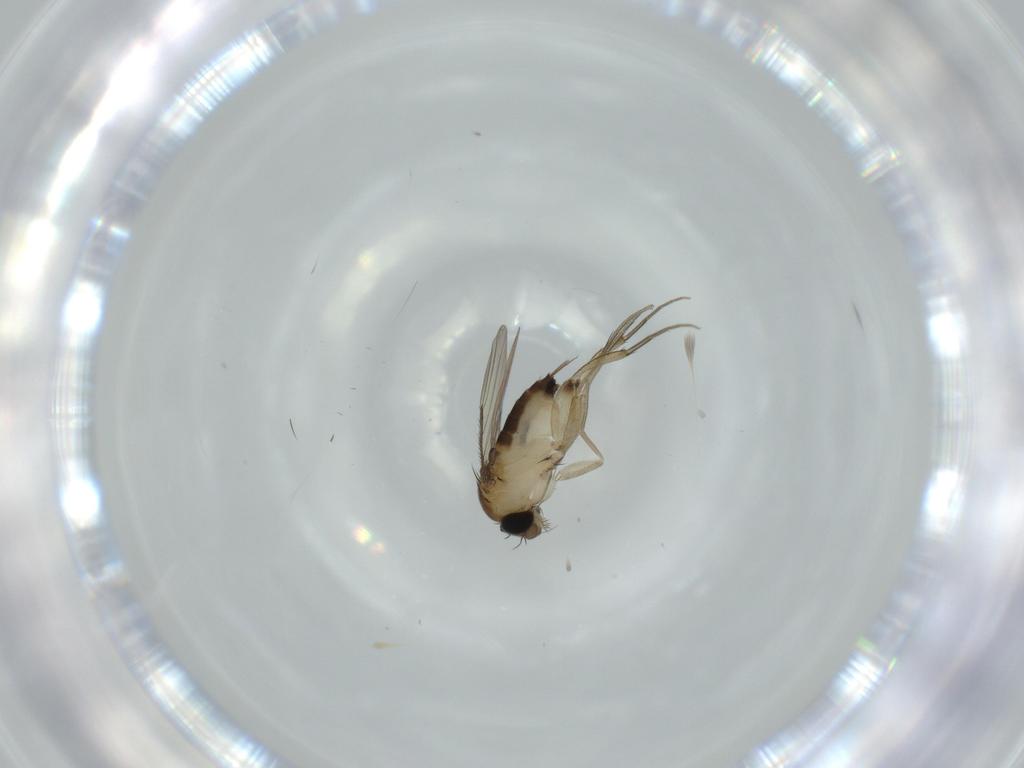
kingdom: Animalia
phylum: Arthropoda
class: Insecta
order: Diptera
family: Phoridae
